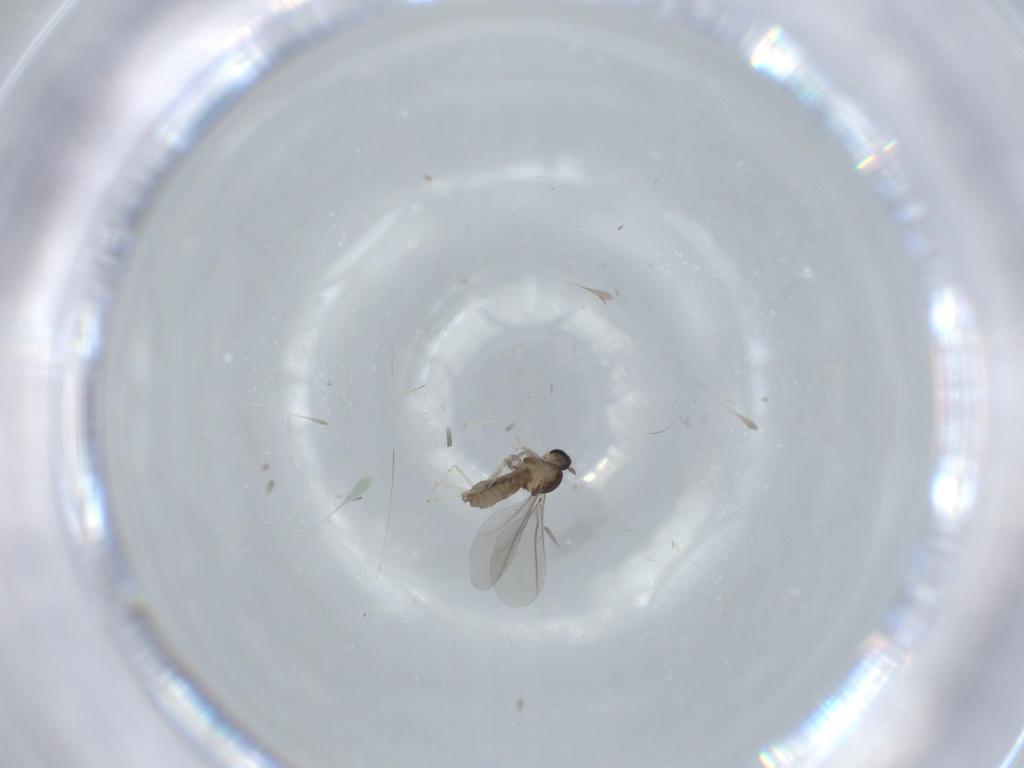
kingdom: Animalia
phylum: Arthropoda
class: Insecta
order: Diptera
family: Cecidomyiidae
